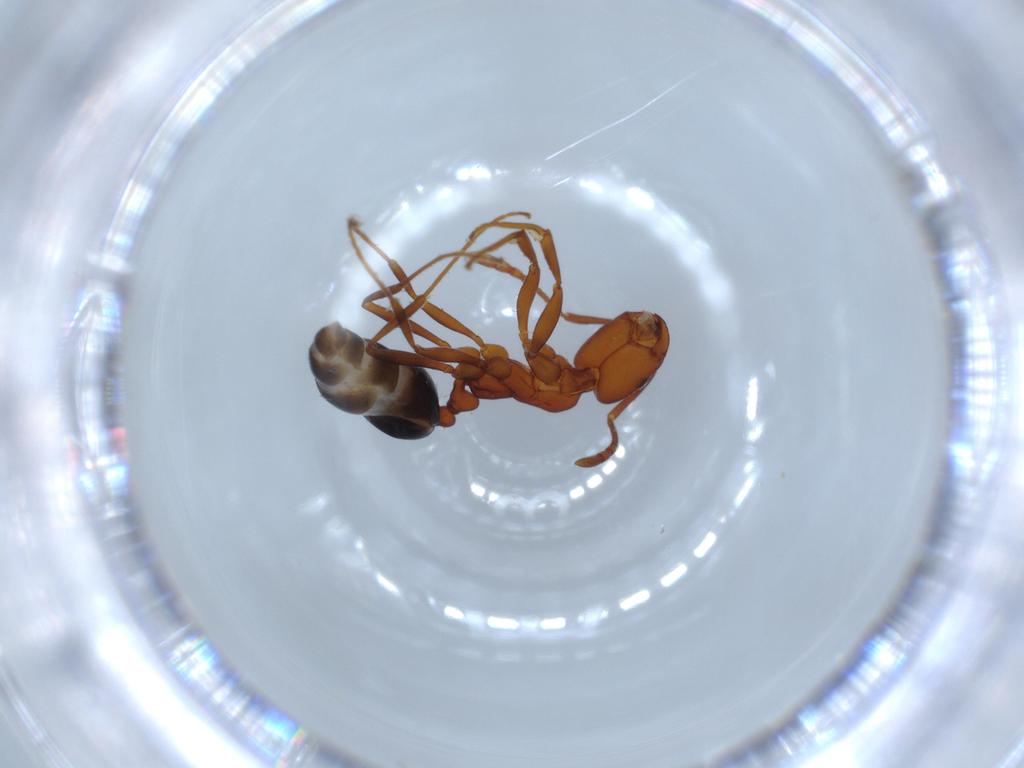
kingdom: Animalia
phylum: Arthropoda
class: Insecta
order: Hymenoptera
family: Formicidae
